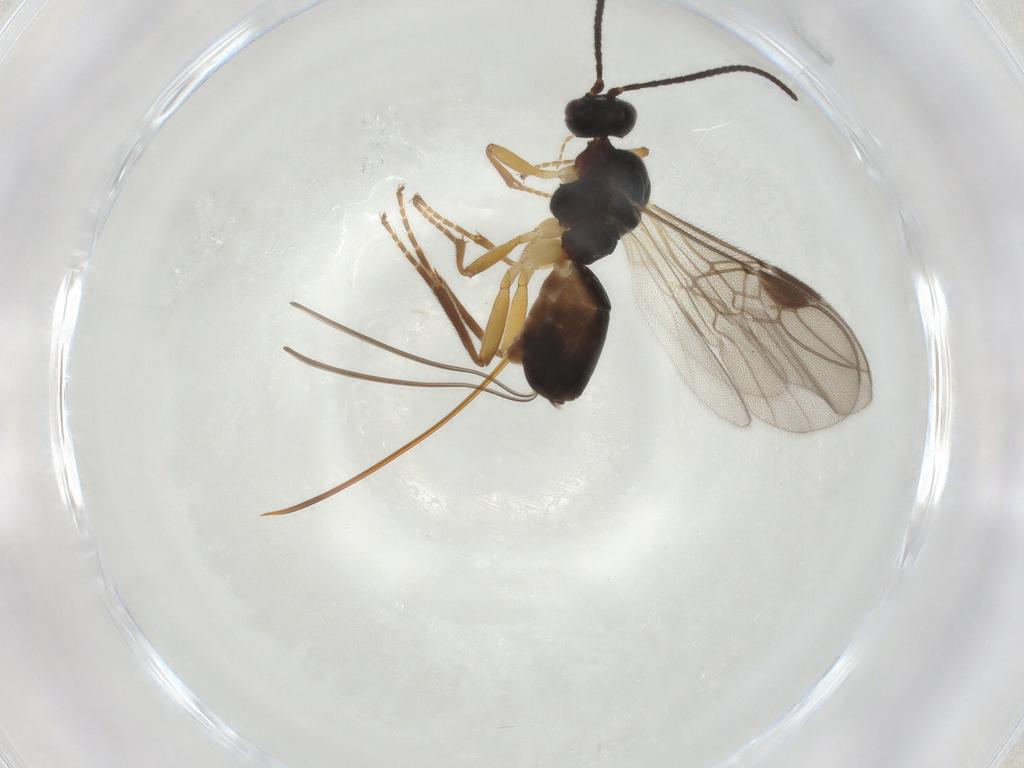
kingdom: Animalia
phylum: Arthropoda
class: Insecta
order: Hymenoptera
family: Braconidae
